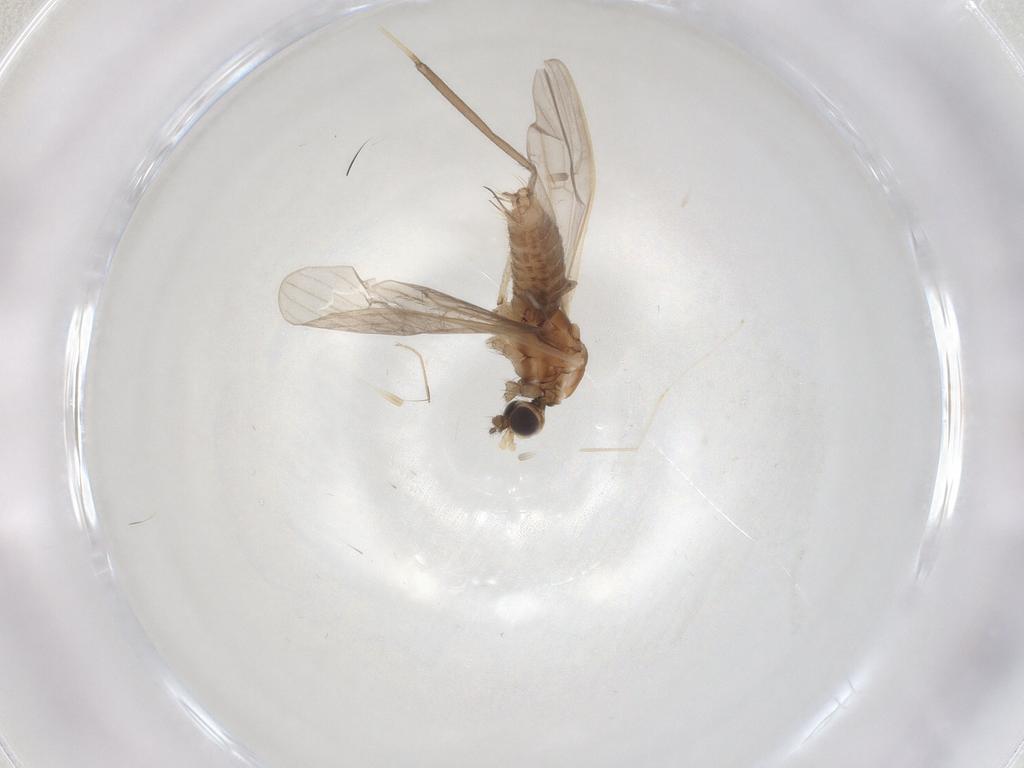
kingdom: Animalia
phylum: Arthropoda
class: Insecta
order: Diptera
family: Limoniidae
